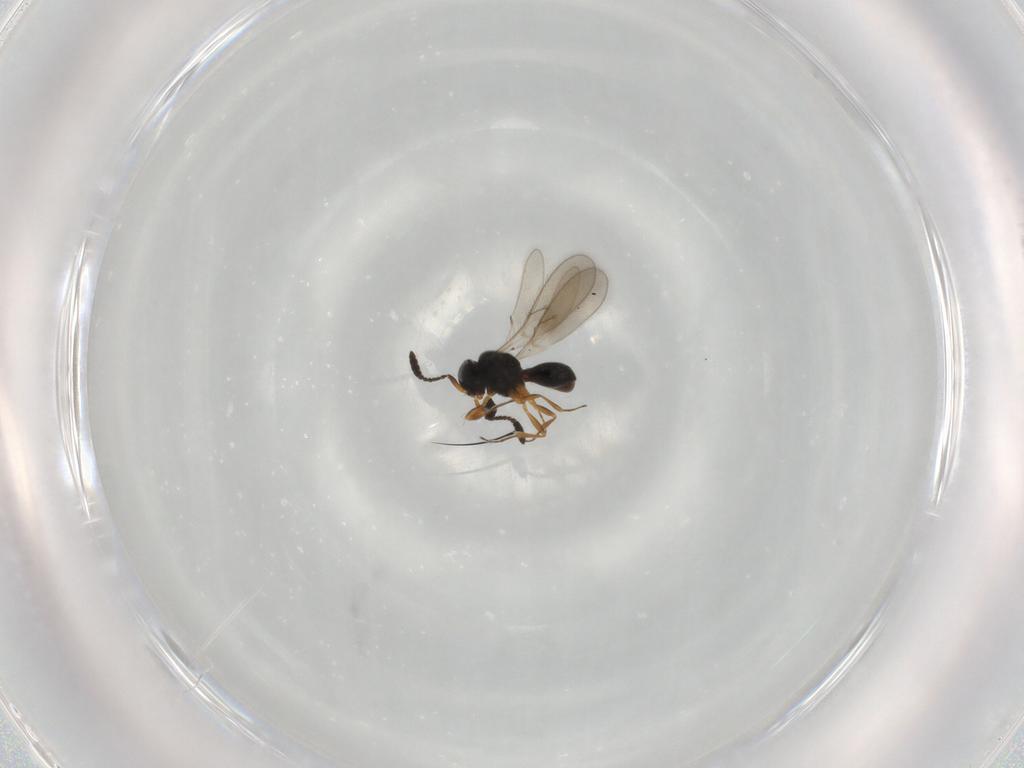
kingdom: Animalia
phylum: Arthropoda
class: Insecta
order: Hymenoptera
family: Scelionidae
